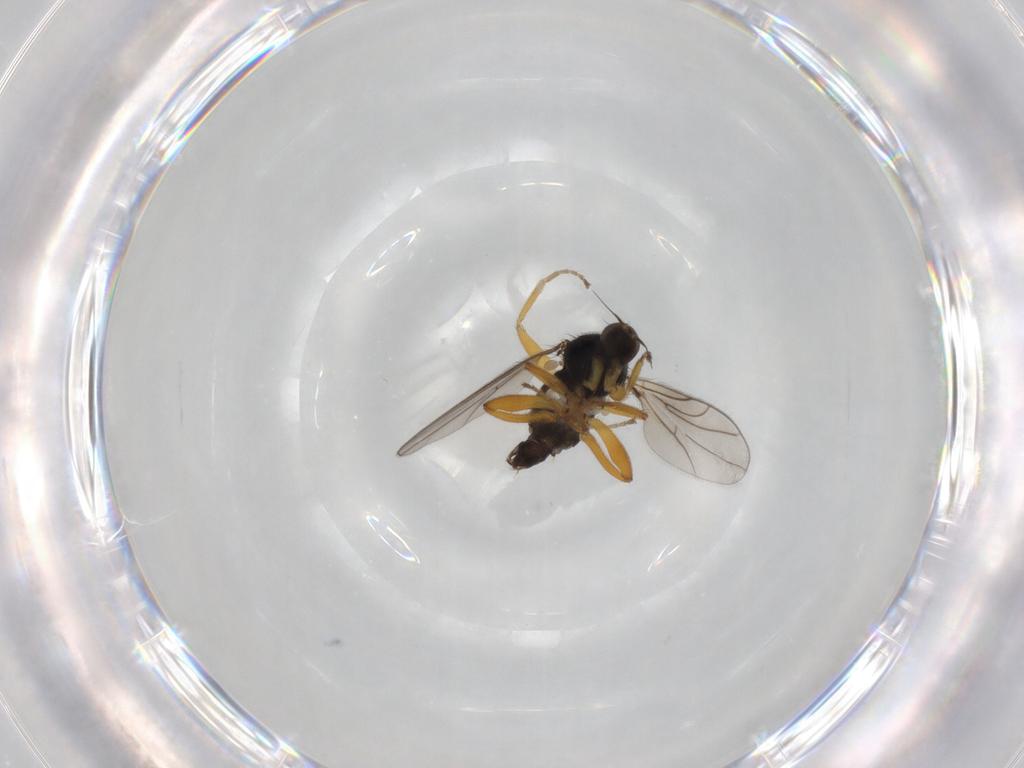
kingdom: Animalia
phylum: Arthropoda
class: Insecta
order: Diptera
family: Hybotidae
